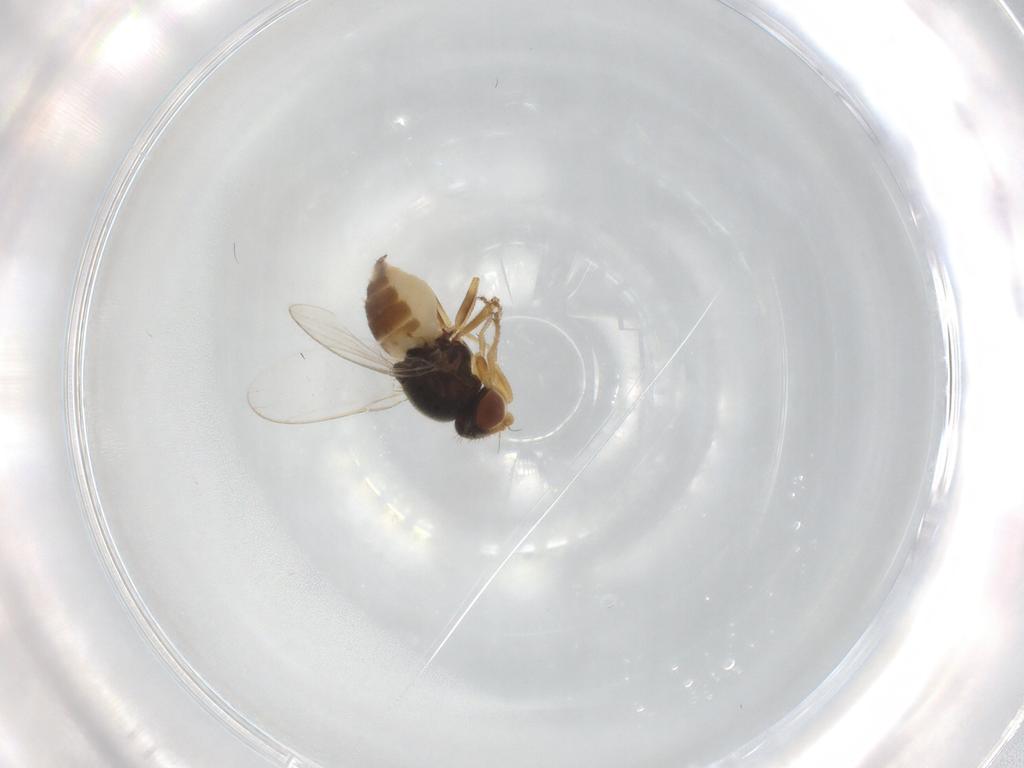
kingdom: Animalia
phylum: Arthropoda
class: Insecta
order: Diptera
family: Chloropidae
